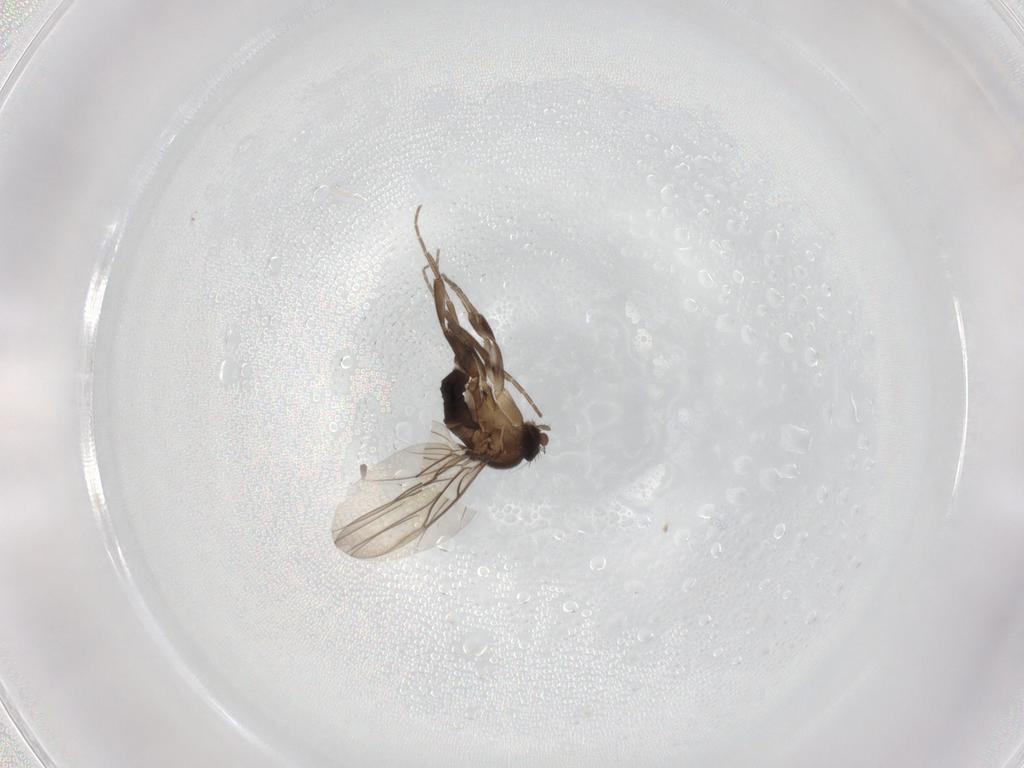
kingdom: Animalia
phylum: Arthropoda
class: Insecta
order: Diptera
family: Phoridae
